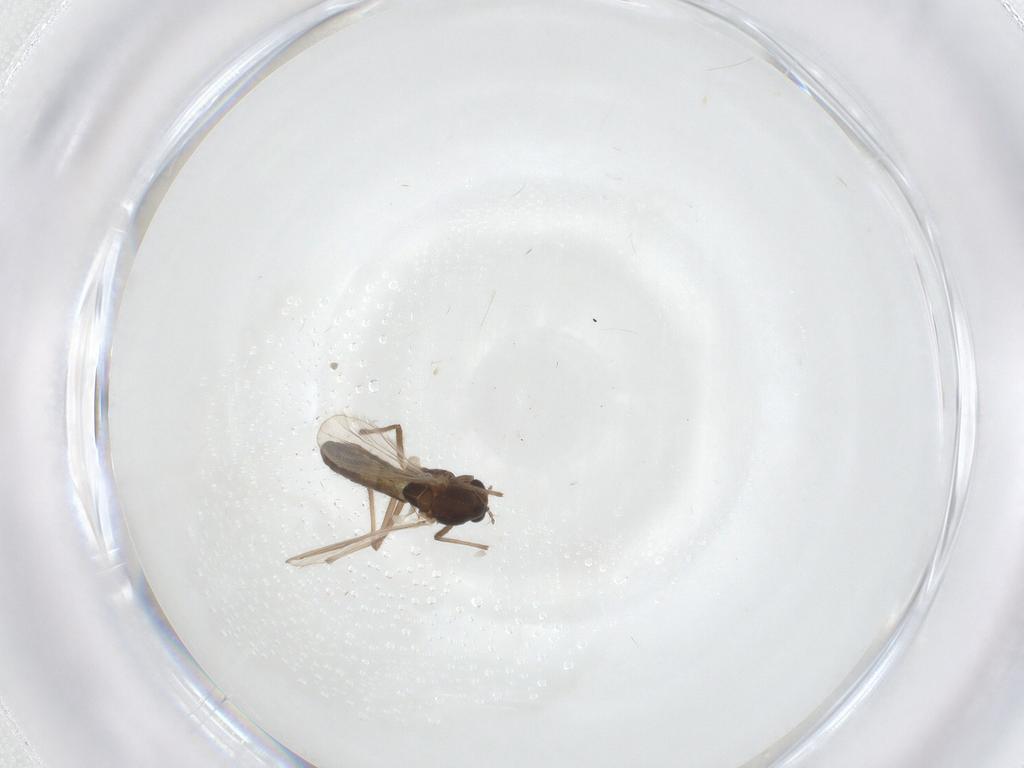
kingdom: Animalia
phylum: Arthropoda
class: Insecta
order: Diptera
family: Chironomidae
